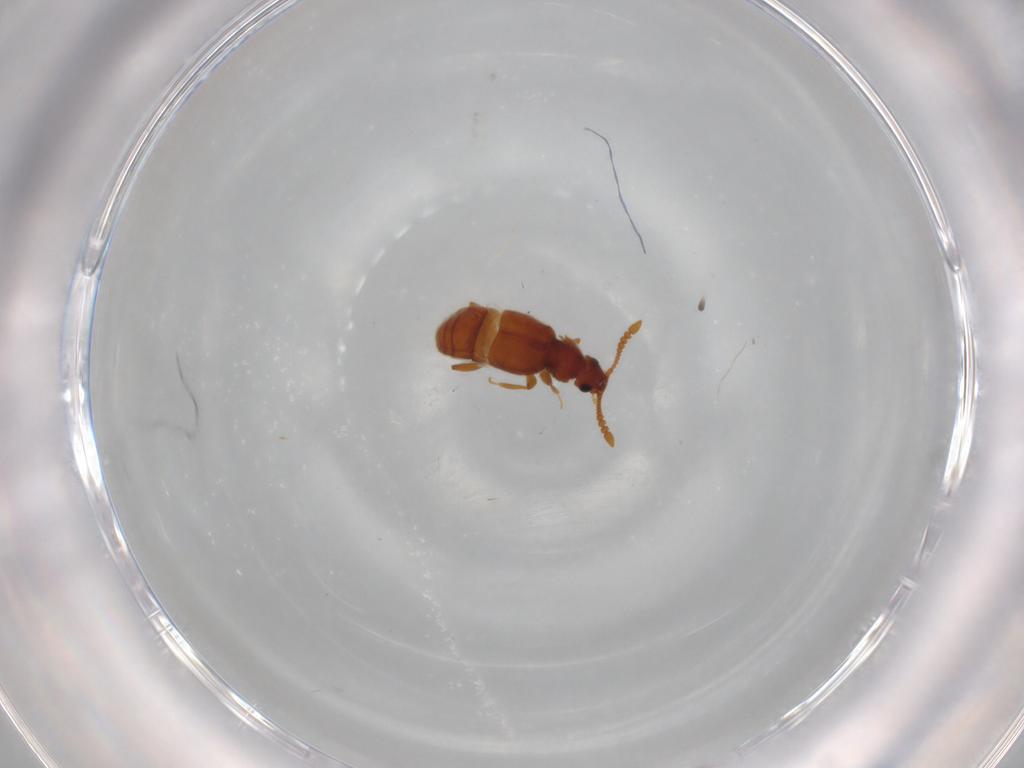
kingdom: Animalia
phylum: Arthropoda
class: Insecta
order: Coleoptera
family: Staphylinidae
